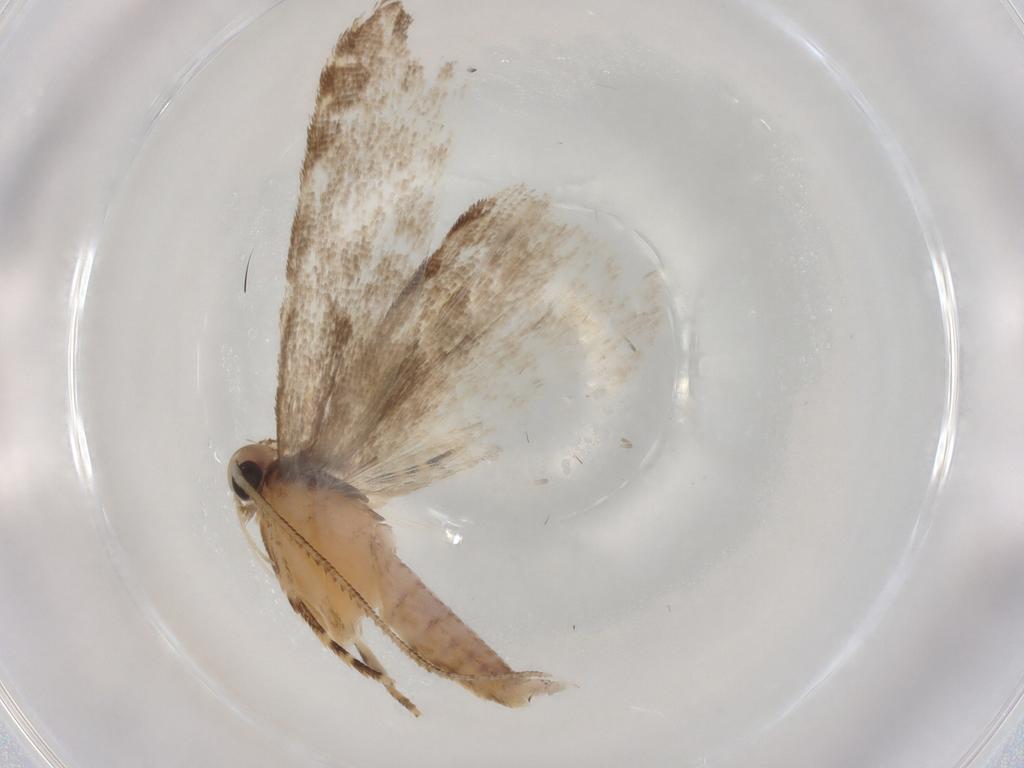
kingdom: Animalia
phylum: Arthropoda
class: Insecta
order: Lepidoptera
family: Gelechiidae
